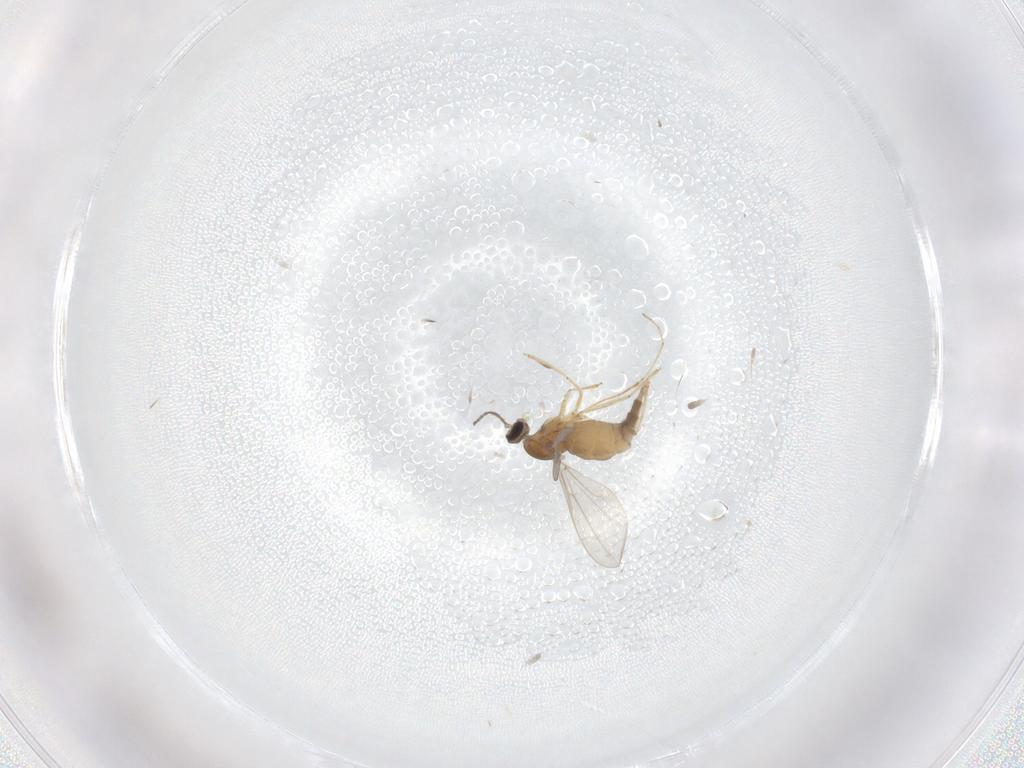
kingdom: Animalia
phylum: Arthropoda
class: Insecta
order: Diptera
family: Phoridae
